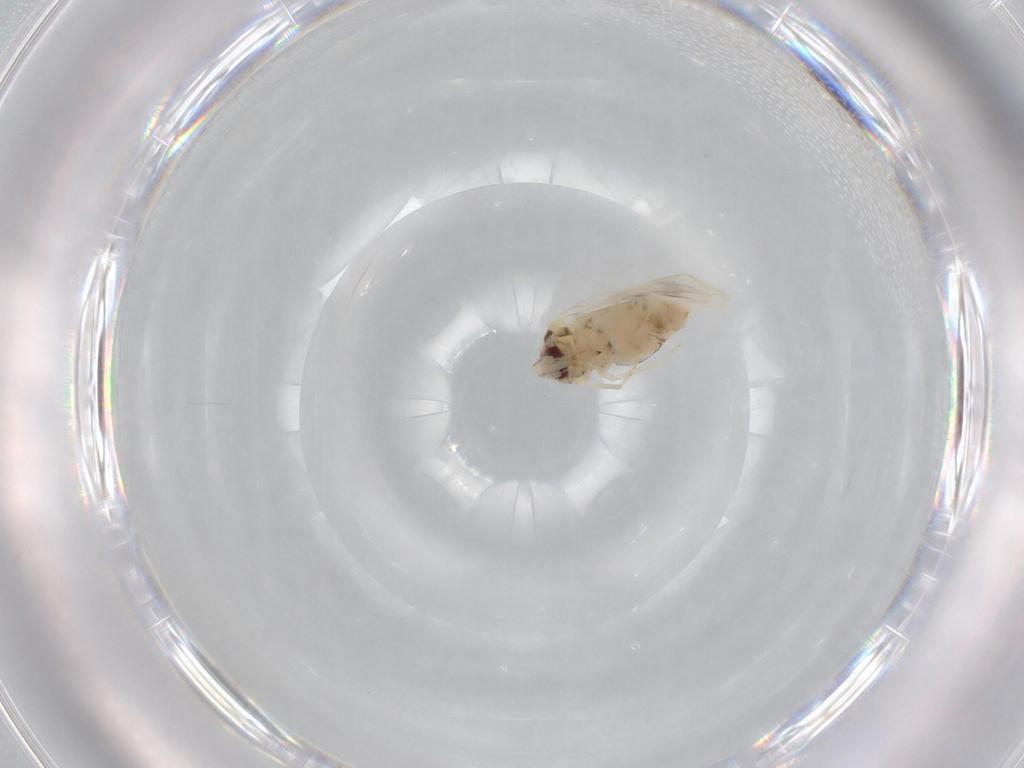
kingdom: Animalia
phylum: Arthropoda
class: Insecta
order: Hemiptera
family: Aleyrodidae
